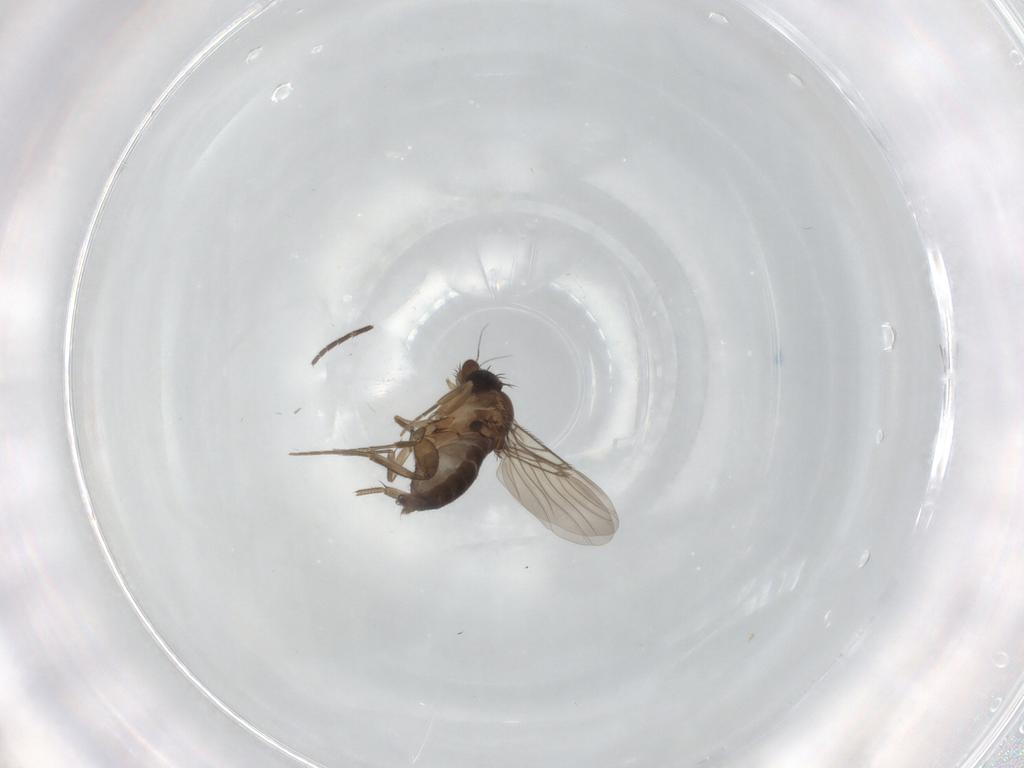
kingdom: Animalia
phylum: Arthropoda
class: Insecta
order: Diptera
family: Phoridae
